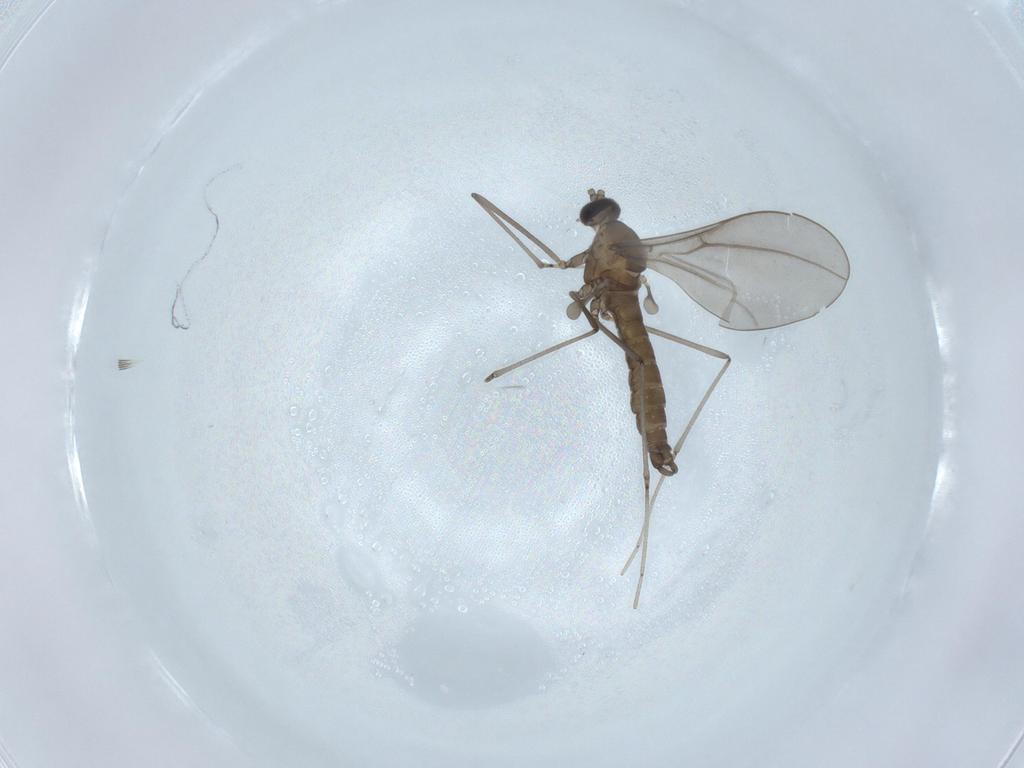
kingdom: Animalia
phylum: Arthropoda
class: Insecta
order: Diptera
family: Cecidomyiidae
